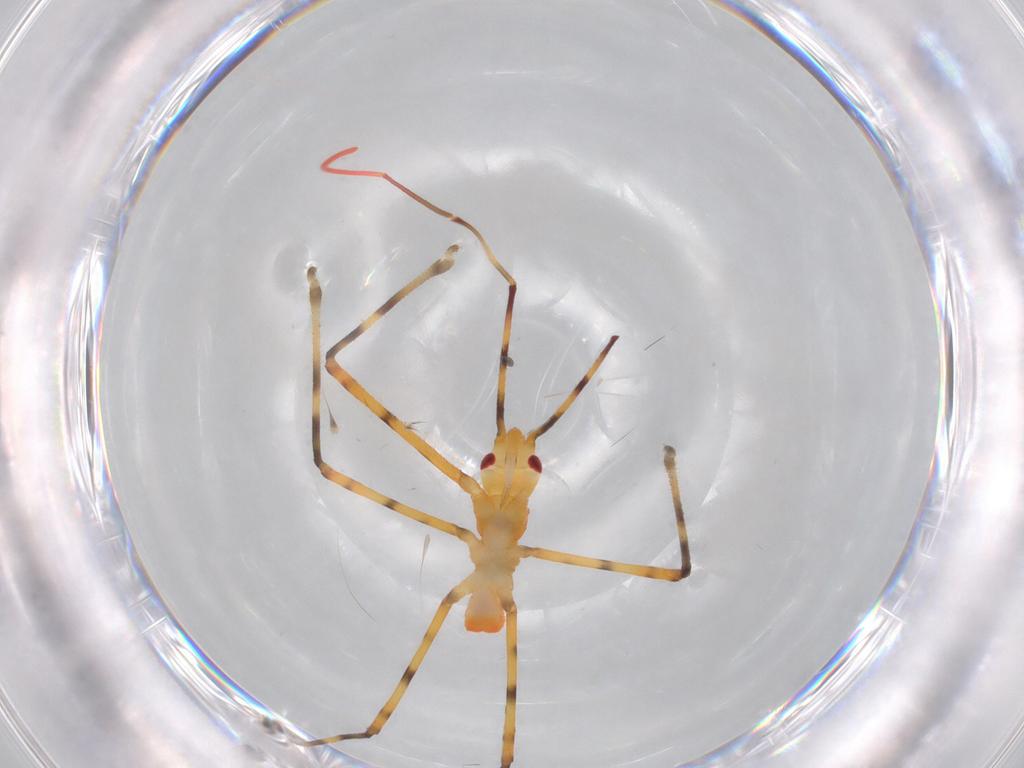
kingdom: Animalia
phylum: Arthropoda
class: Insecta
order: Hemiptera
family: Reduviidae
